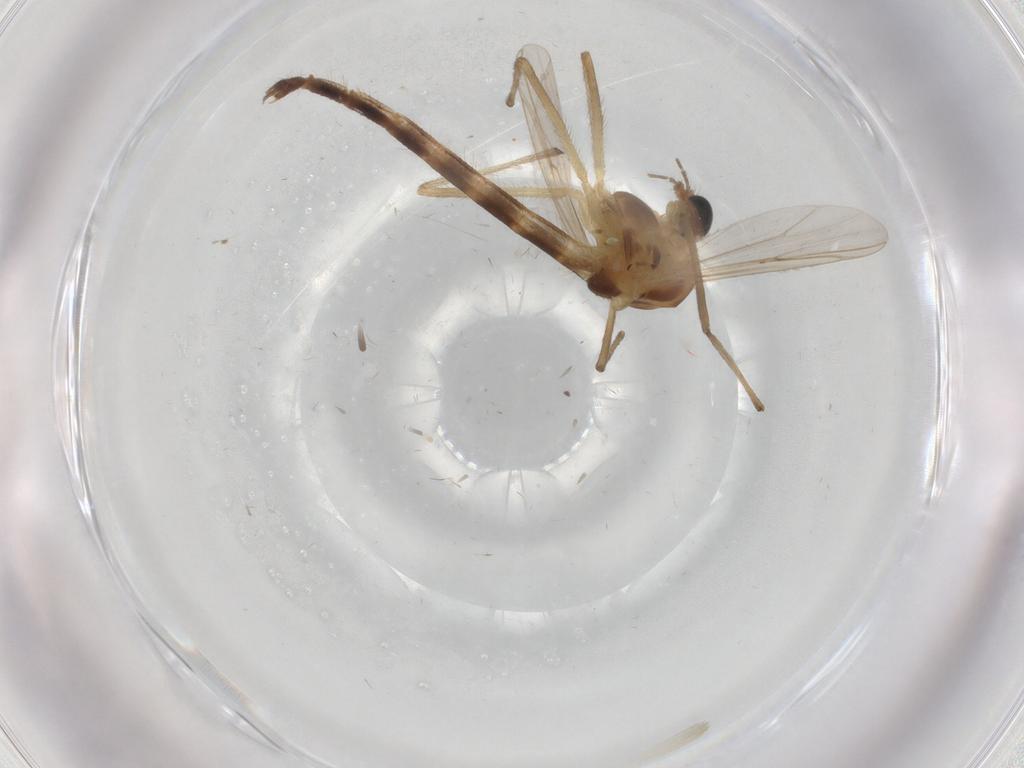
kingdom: Animalia
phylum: Arthropoda
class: Insecta
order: Diptera
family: Chironomidae
